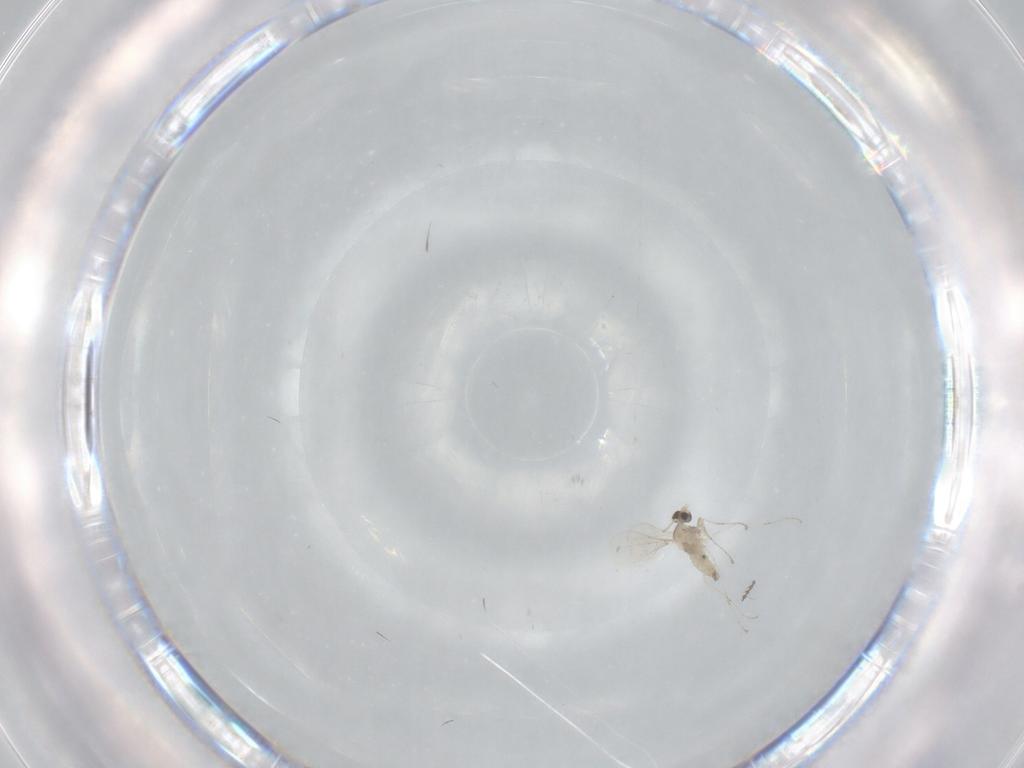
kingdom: Animalia
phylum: Arthropoda
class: Insecta
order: Diptera
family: Cecidomyiidae
